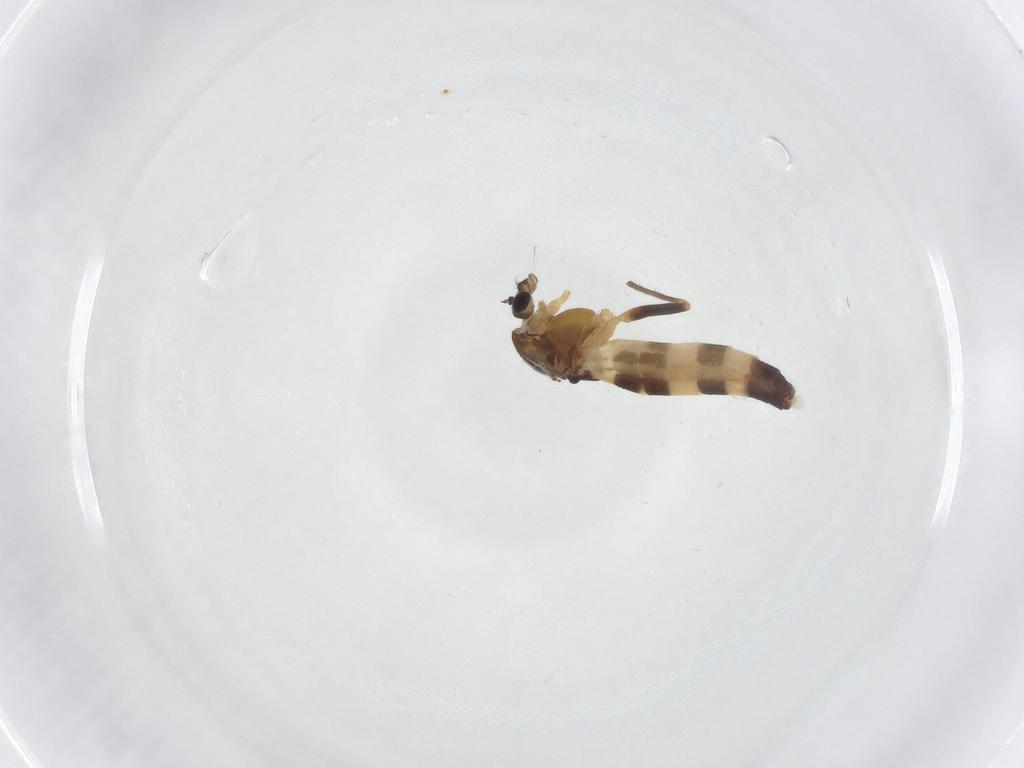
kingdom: Animalia
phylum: Arthropoda
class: Insecta
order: Diptera
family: Chironomidae
